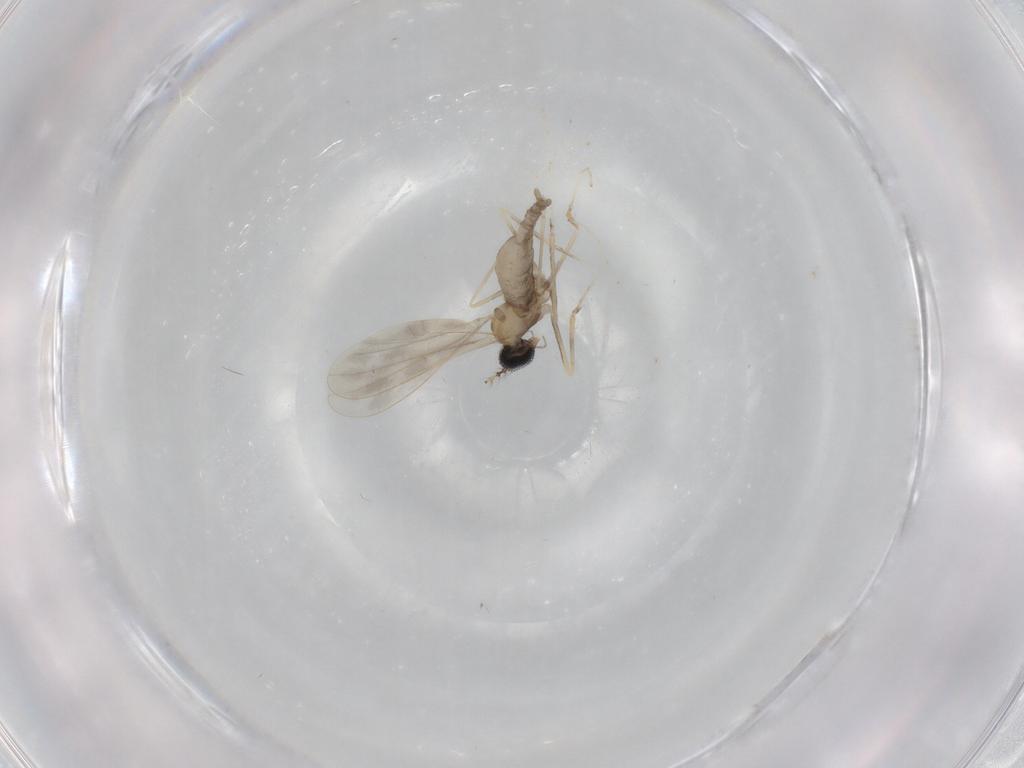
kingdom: Animalia
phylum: Arthropoda
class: Insecta
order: Diptera
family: Cecidomyiidae
